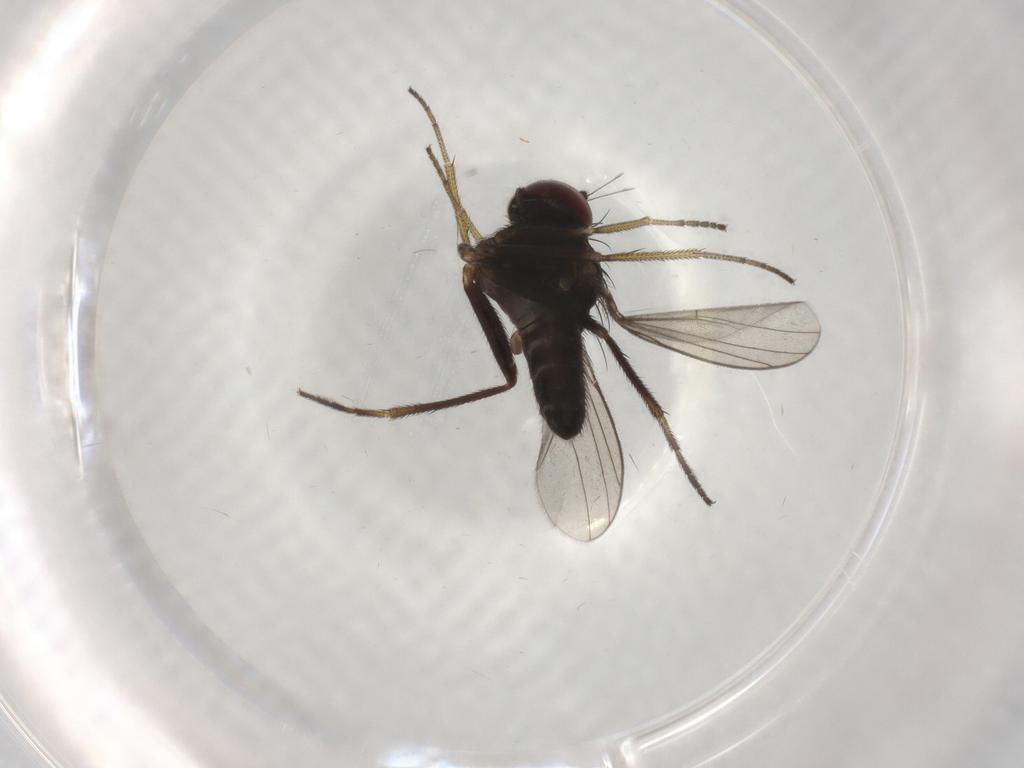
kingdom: Animalia
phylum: Arthropoda
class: Insecta
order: Diptera
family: Dolichopodidae
